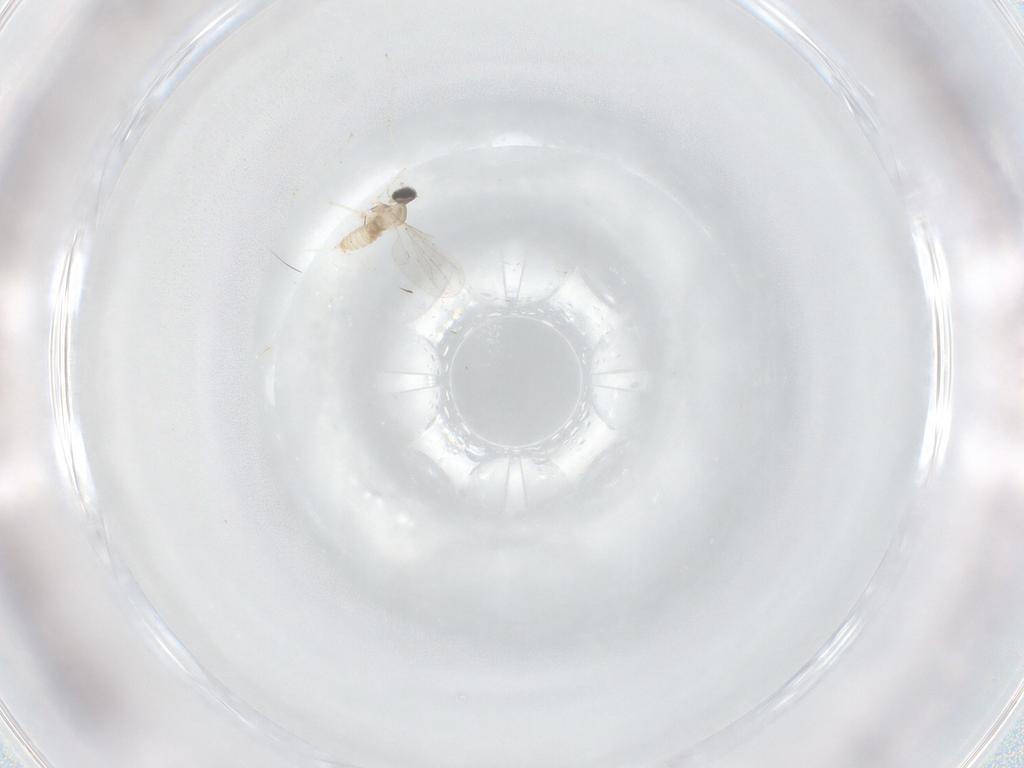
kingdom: Animalia
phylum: Arthropoda
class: Insecta
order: Diptera
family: Cecidomyiidae
